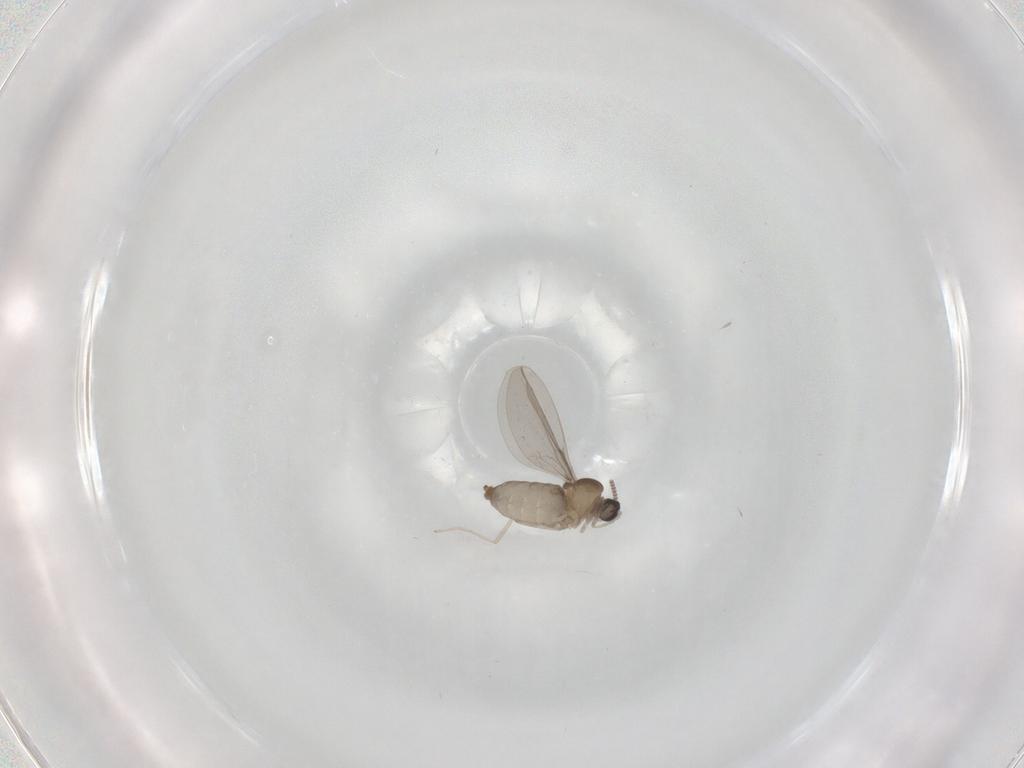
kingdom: Animalia
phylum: Arthropoda
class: Insecta
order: Diptera
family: Cecidomyiidae
